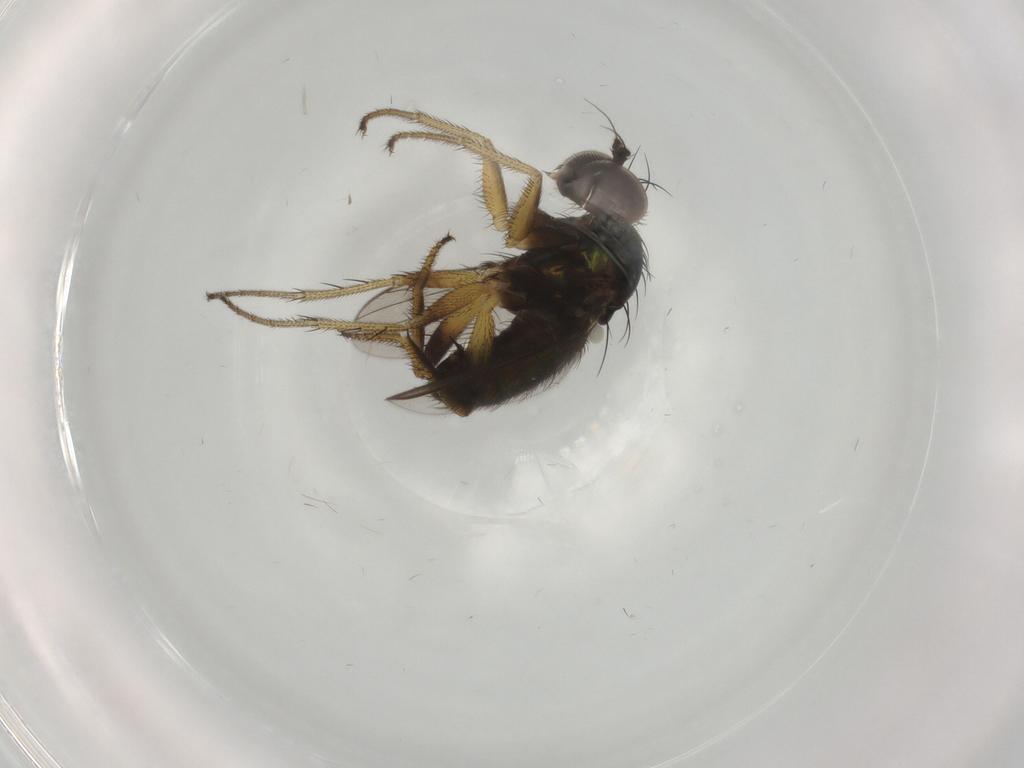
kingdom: Animalia
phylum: Arthropoda
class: Insecta
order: Diptera
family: Dolichopodidae
